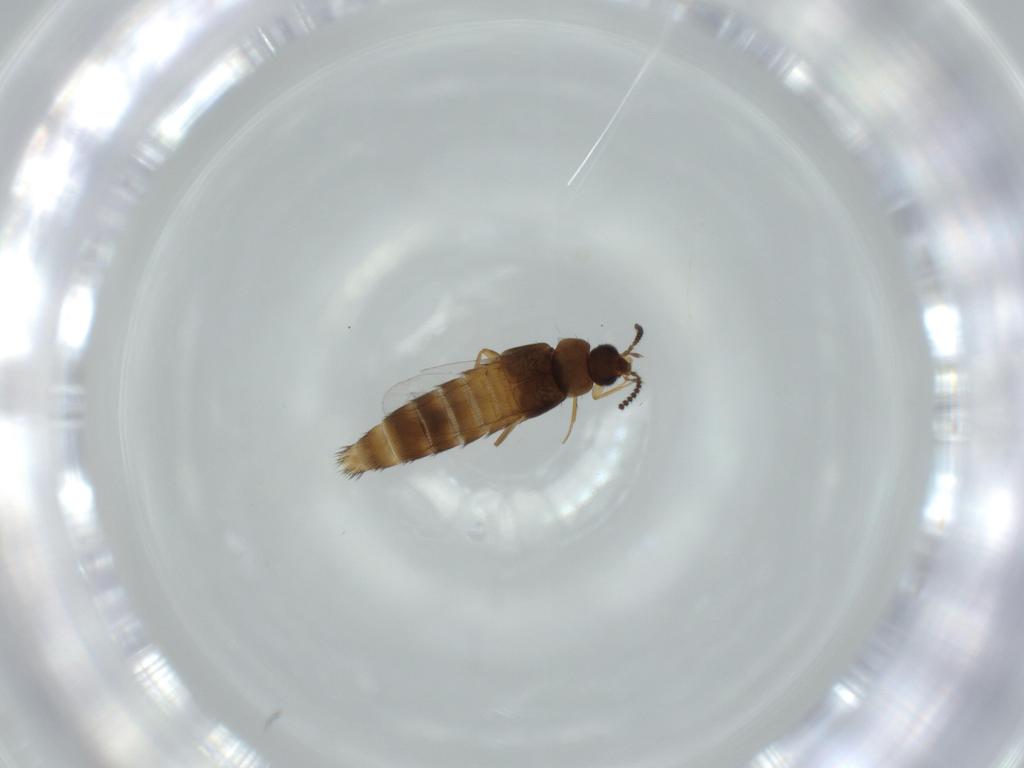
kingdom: Animalia
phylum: Arthropoda
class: Insecta
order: Coleoptera
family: Staphylinidae
